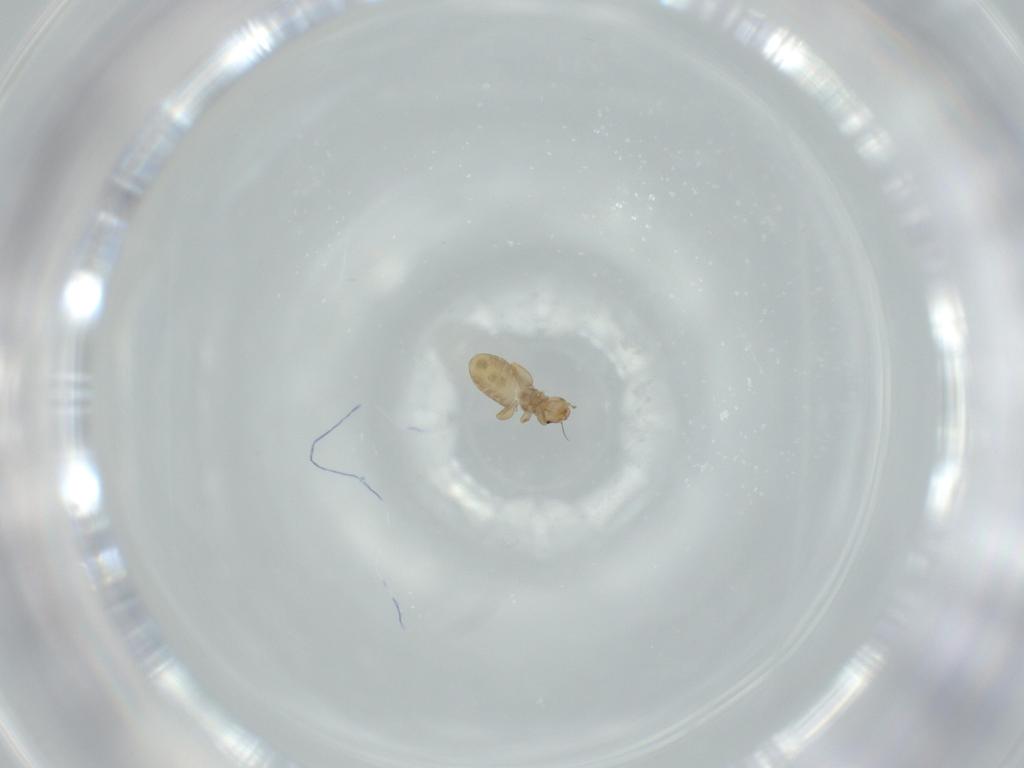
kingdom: Animalia
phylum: Arthropoda
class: Insecta
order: Psocodea
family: Liposcelididae
